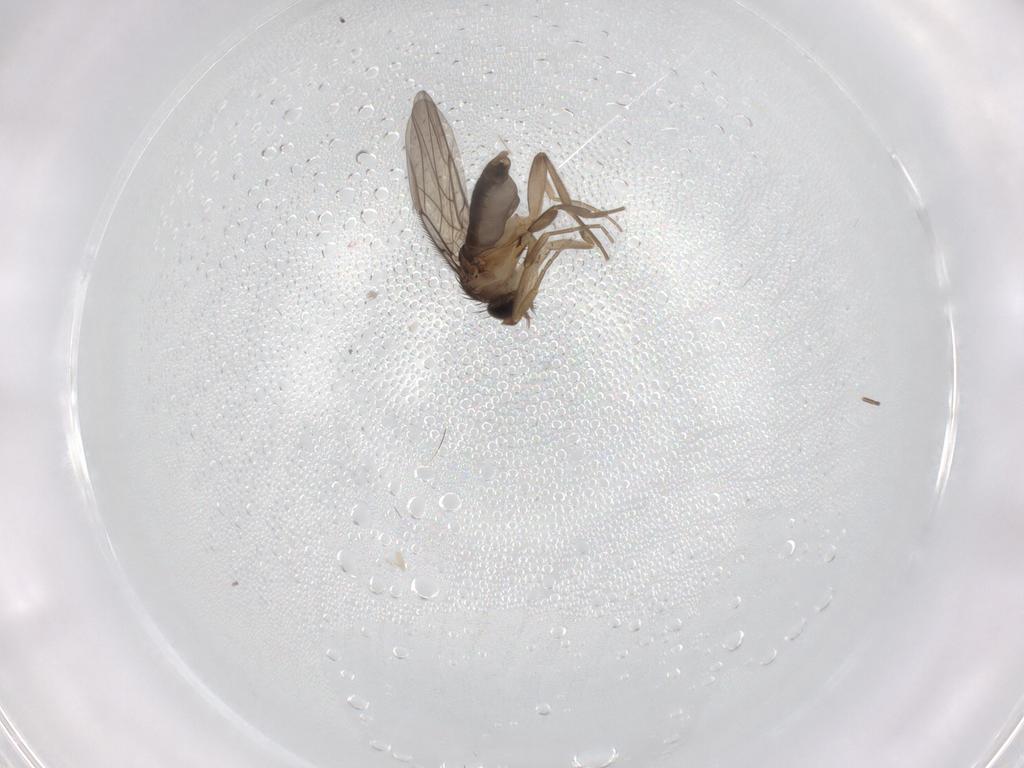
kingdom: Animalia
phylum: Arthropoda
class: Insecta
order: Diptera
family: Phoridae
